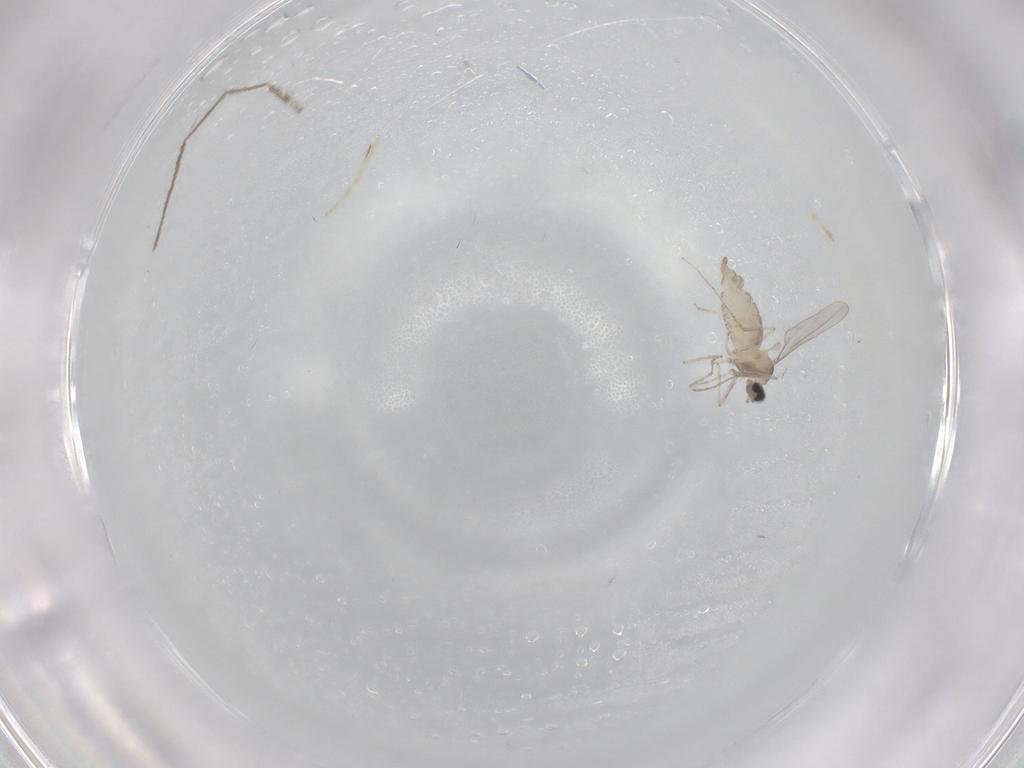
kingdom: Animalia
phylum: Arthropoda
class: Insecta
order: Diptera
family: Cecidomyiidae
